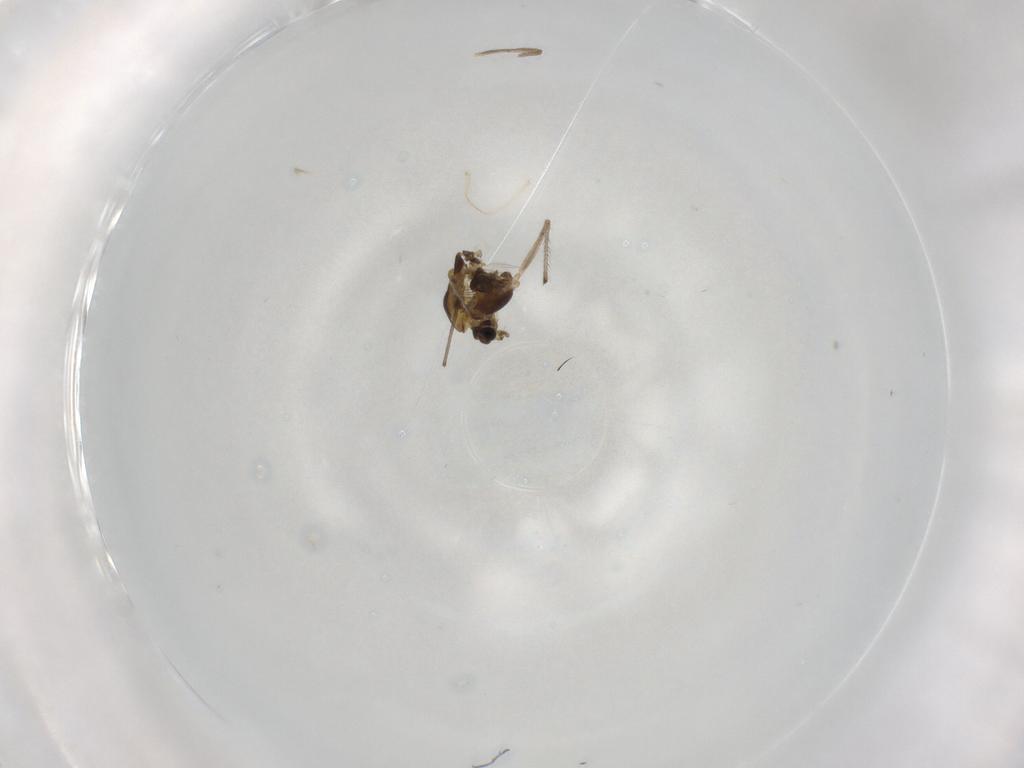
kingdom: Animalia
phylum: Arthropoda
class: Insecta
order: Diptera
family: Chironomidae
